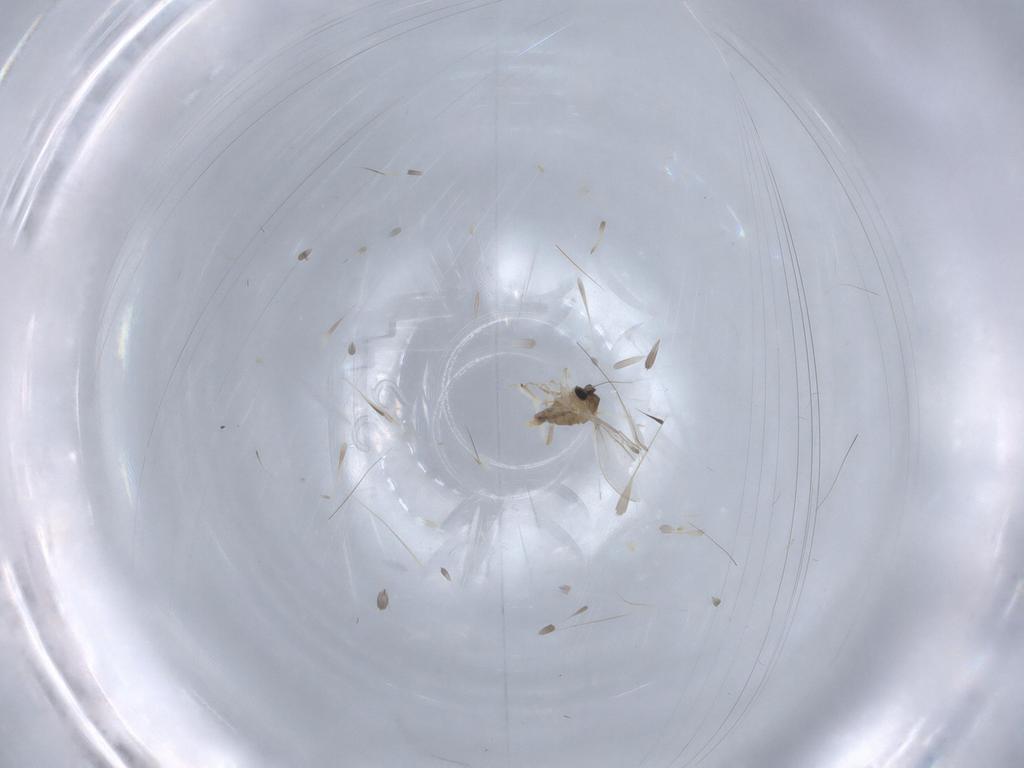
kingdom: Animalia
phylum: Arthropoda
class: Insecta
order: Diptera
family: Cecidomyiidae
